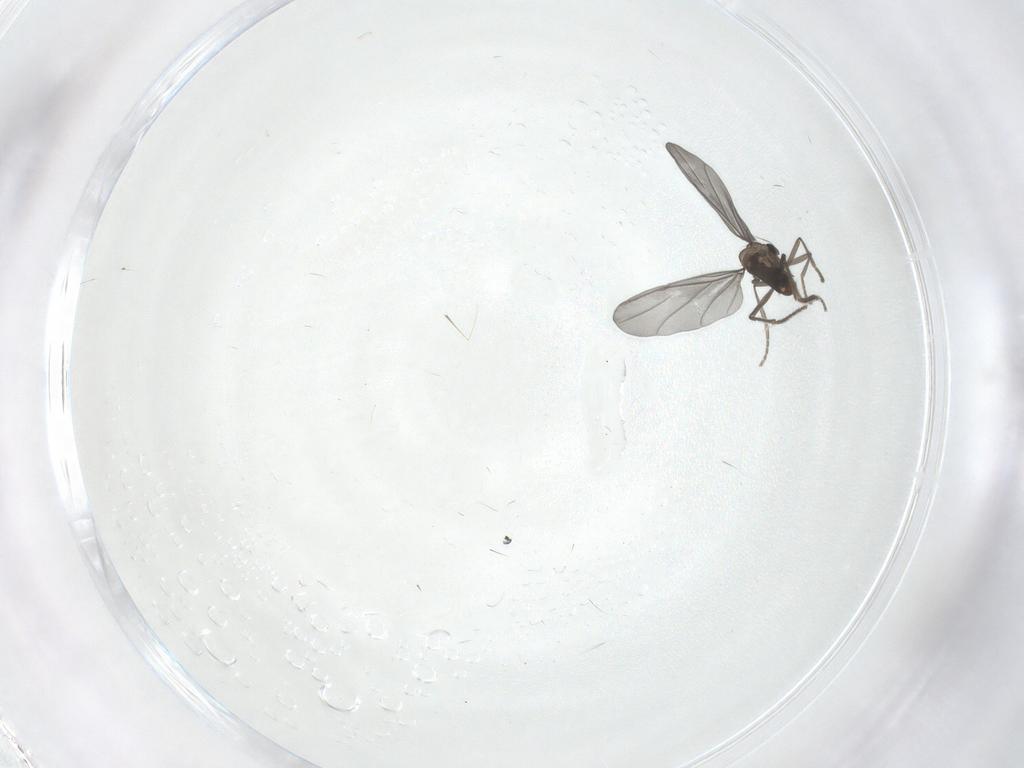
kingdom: Animalia
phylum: Arthropoda
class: Insecta
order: Diptera
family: Phoridae
